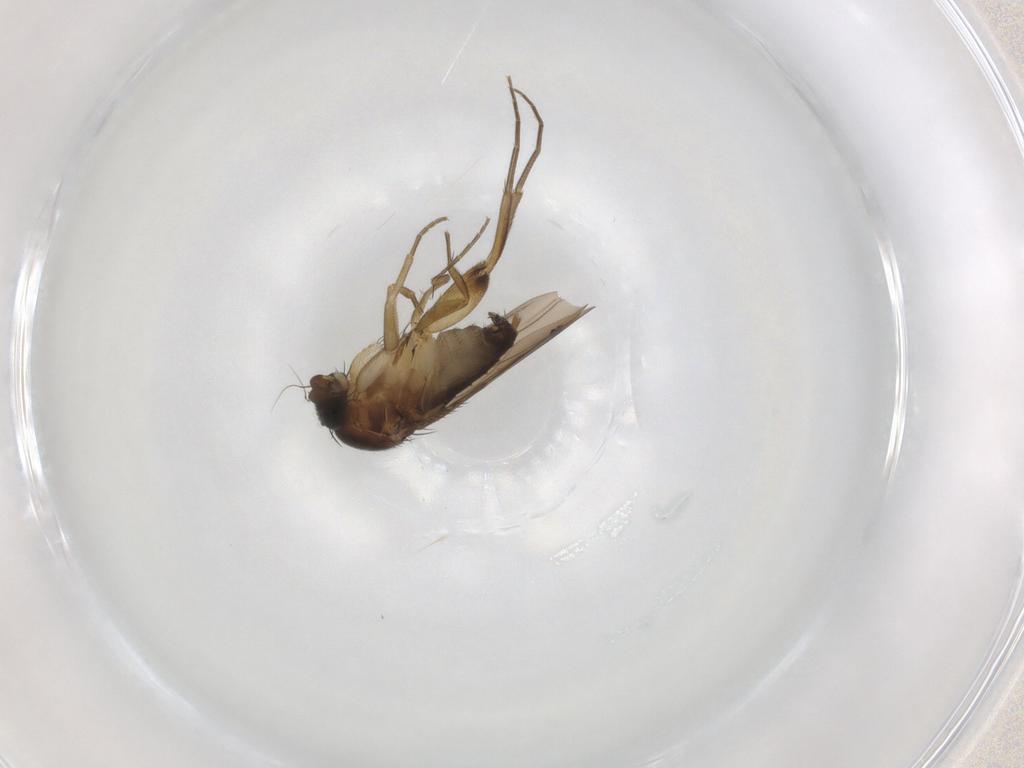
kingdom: Animalia
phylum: Arthropoda
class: Insecta
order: Diptera
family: Phoridae
